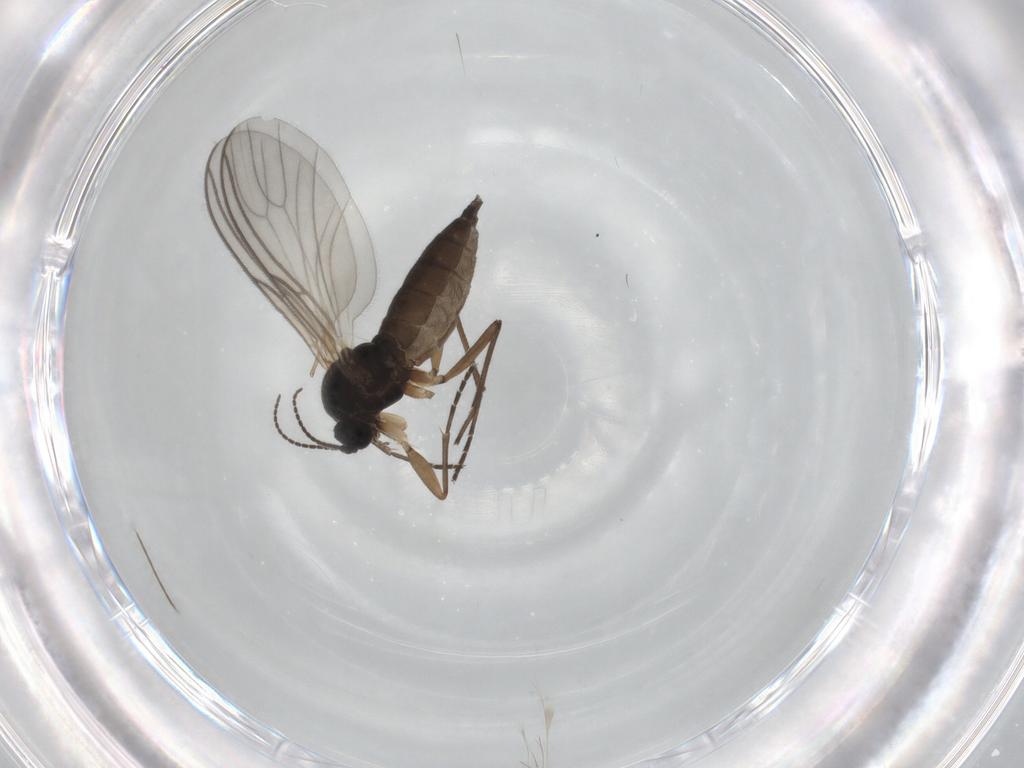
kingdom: Animalia
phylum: Arthropoda
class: Insecta
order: Diptera
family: Sciaridae
